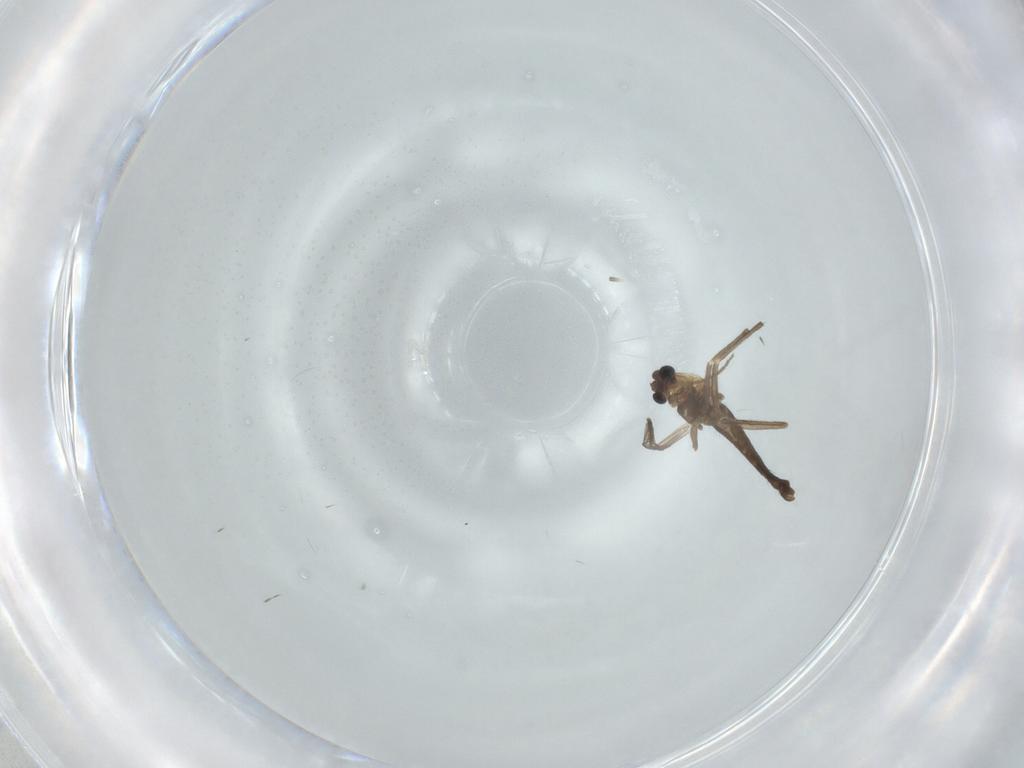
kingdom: Animalia
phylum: Arthropoda
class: Insecta
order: Diptera
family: Chironomidae
